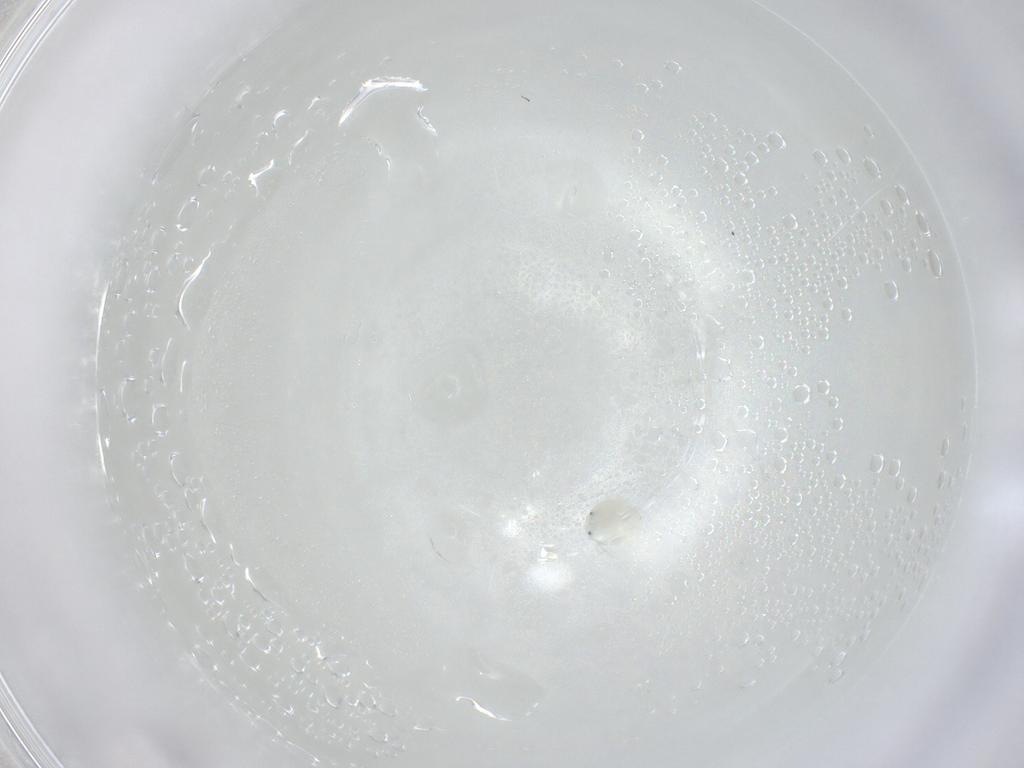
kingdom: Animalia
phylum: Arthropoda
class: Arachnida
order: Trombidiformes
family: Arrenuridae
